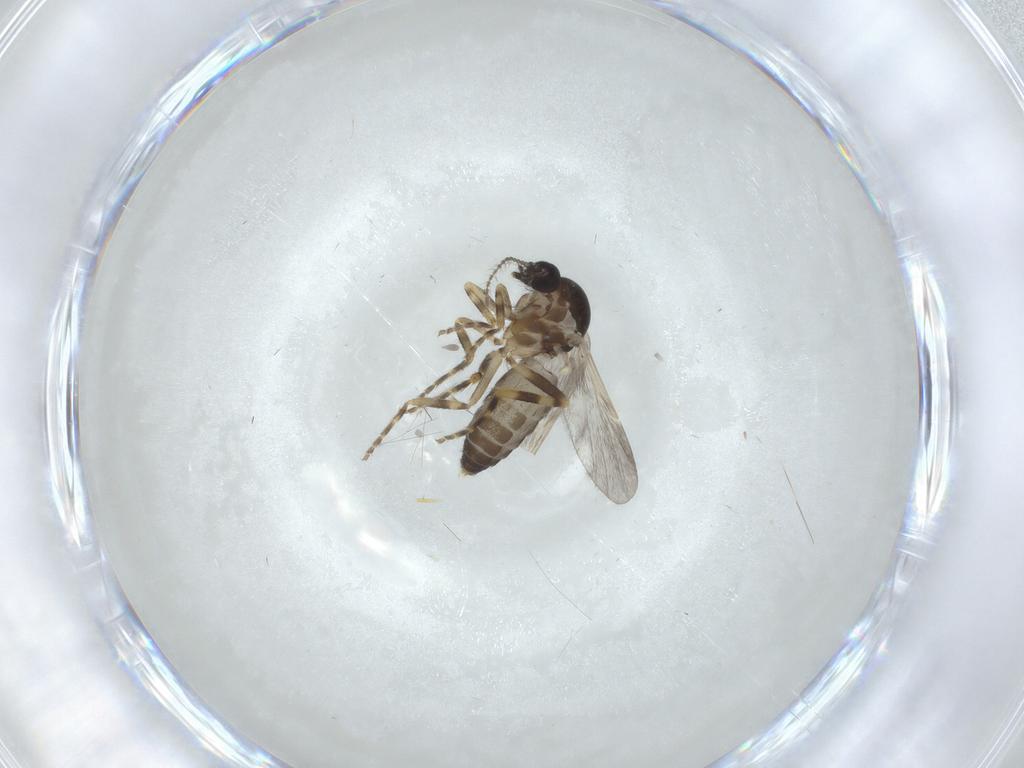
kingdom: Animalia
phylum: Arthropoda
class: Insecta
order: Diptera
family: Ceratopogonidae
